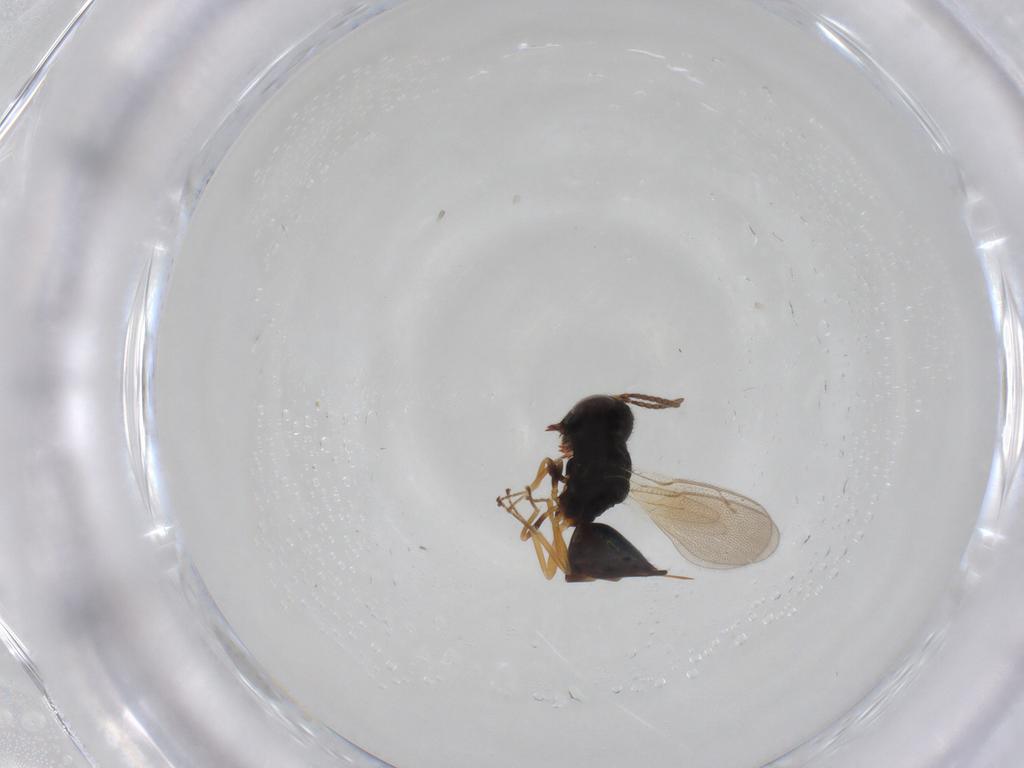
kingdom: Animalia
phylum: Arthropoda
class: Insecta
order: Hymenoptera
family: Pteromalidae
